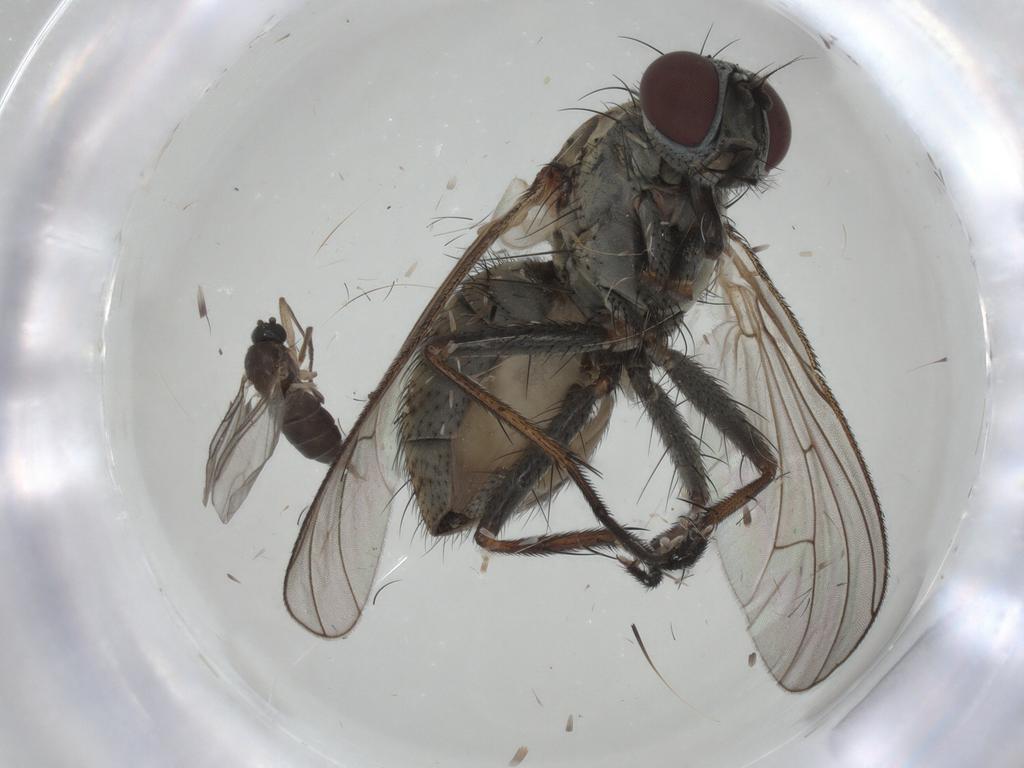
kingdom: Animalia
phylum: Arthropoda
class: Insecta
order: Diptera
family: Muscidae
